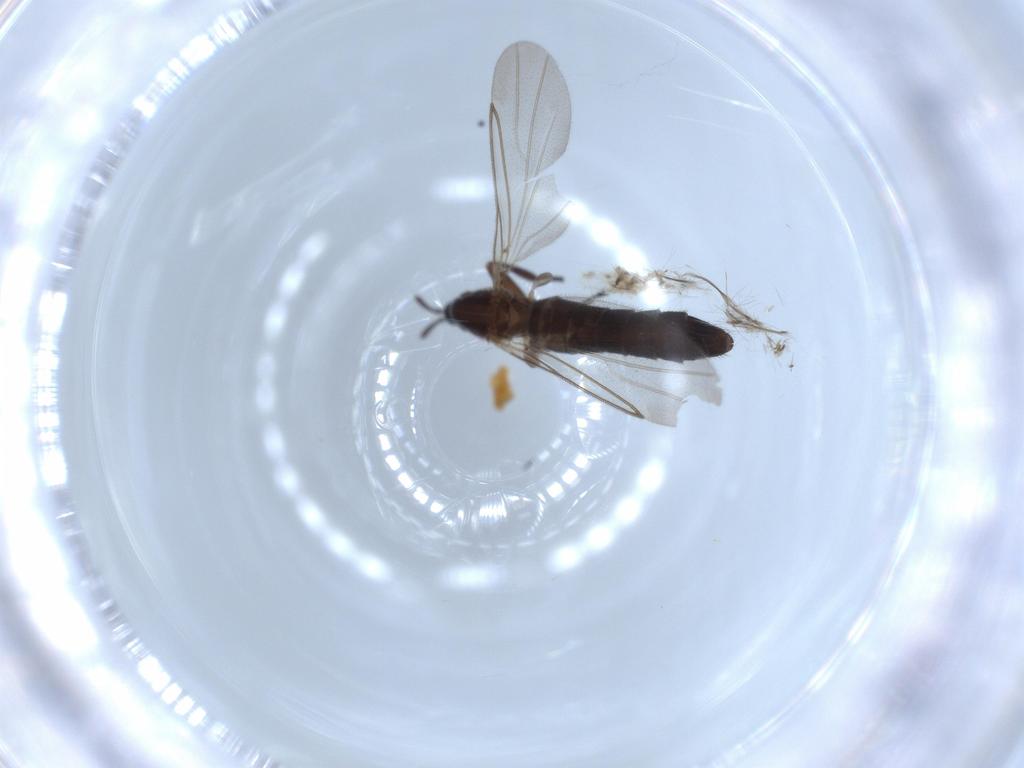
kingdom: Animalia
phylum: Arthropoda
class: Insecta
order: Diptera
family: Scatopsidae
